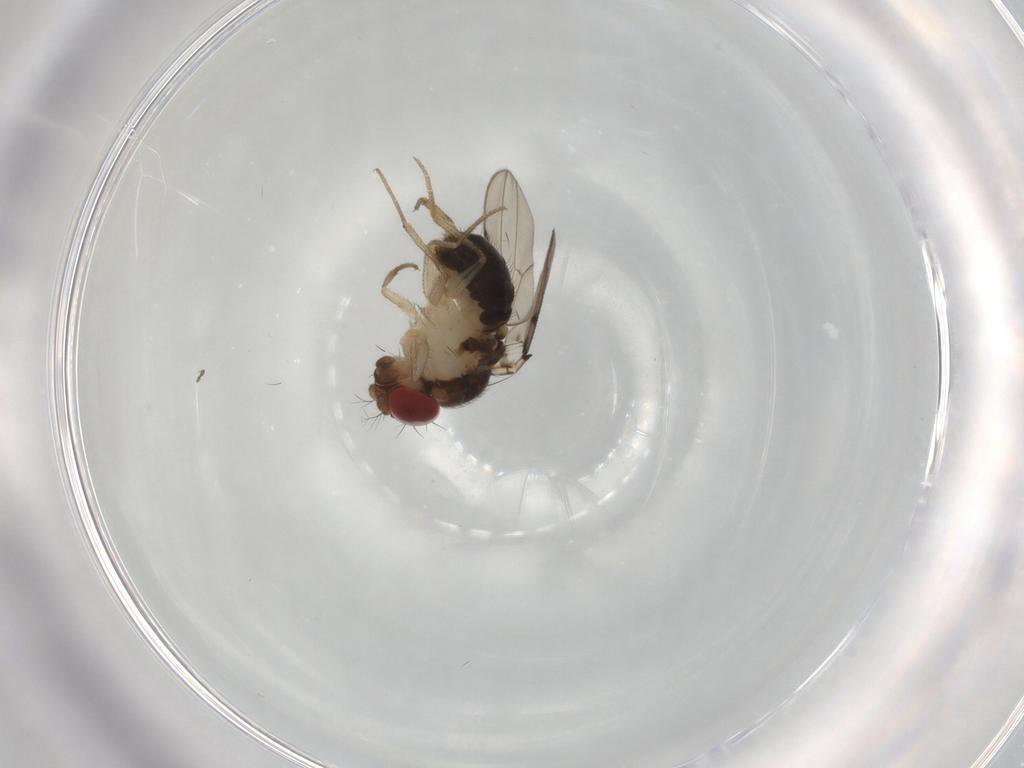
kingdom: Animalia
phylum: Arthropoda
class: Insecta
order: Diptera
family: Drosophilidae
